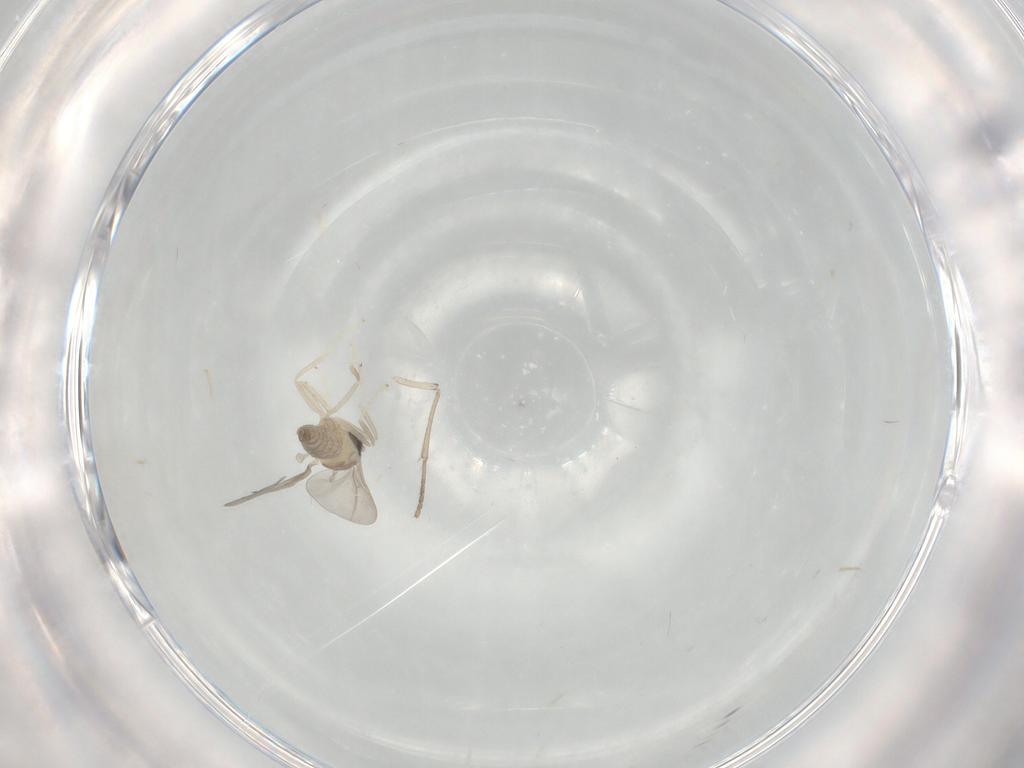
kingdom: Animalia
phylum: Arthropoda
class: Insecta
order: Diptera
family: Cecidomyiidae
